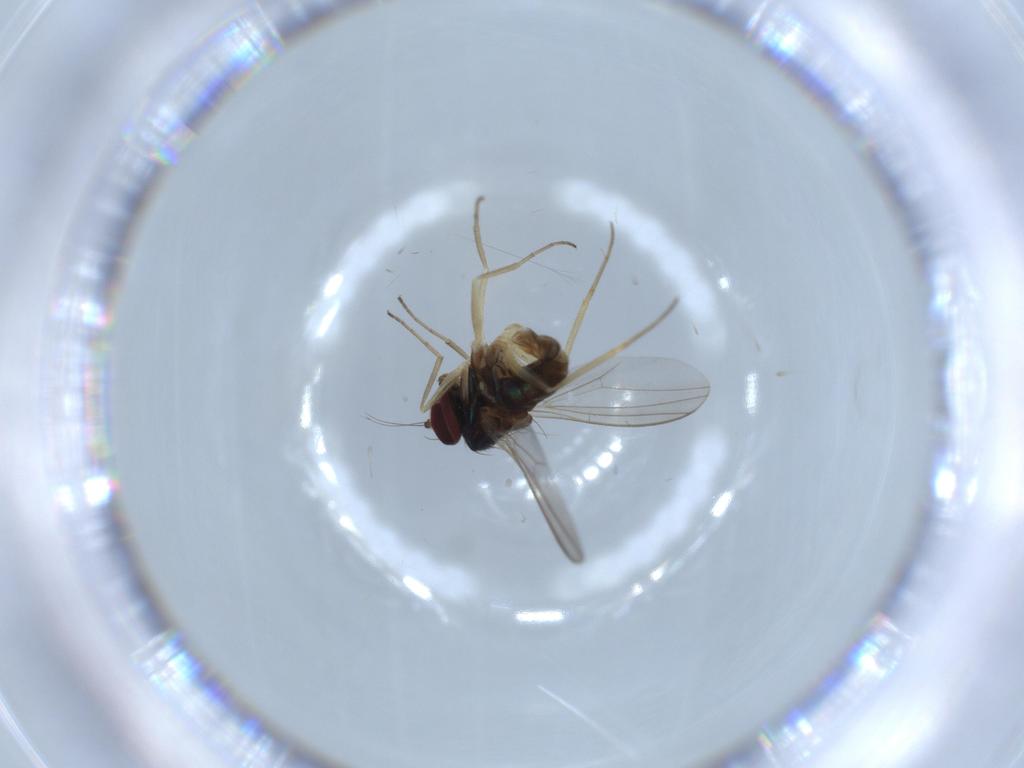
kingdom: Animalia
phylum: Arthropoda
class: Insecta
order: Diptera
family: Dolichopodidae
